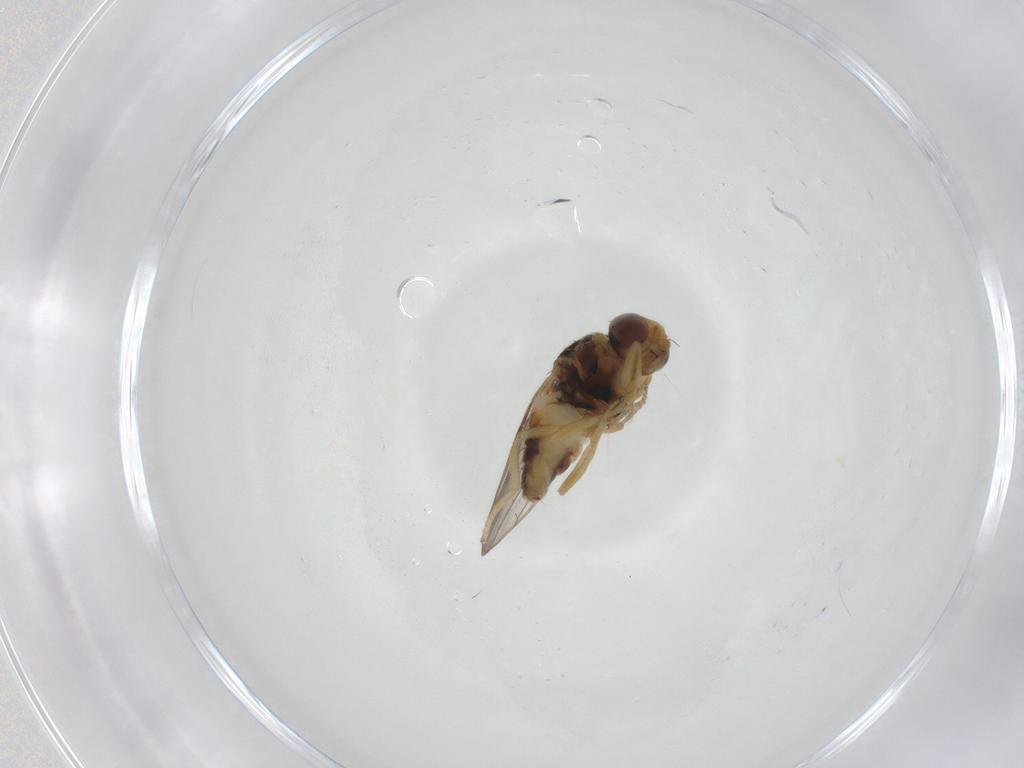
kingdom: Animalia
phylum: Arthropoda
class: Insecta
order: Diptera
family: Chloropidae
